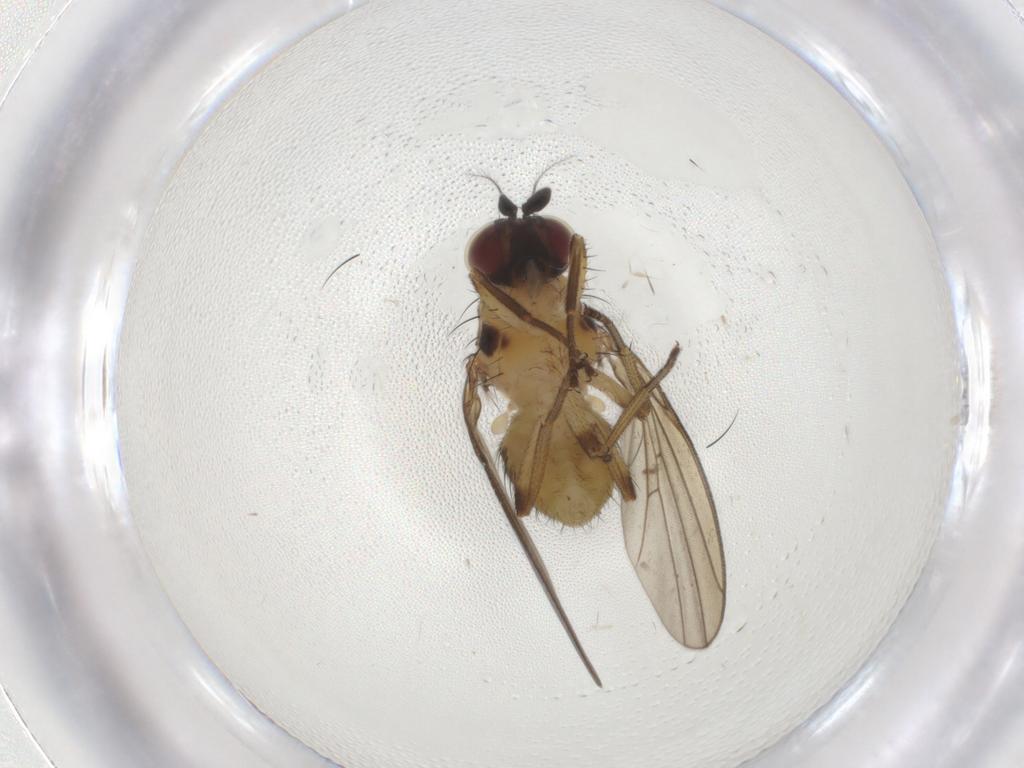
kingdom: Animalia
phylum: Arthropoda
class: Insecta
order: Diptera
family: Lauxaniidae
